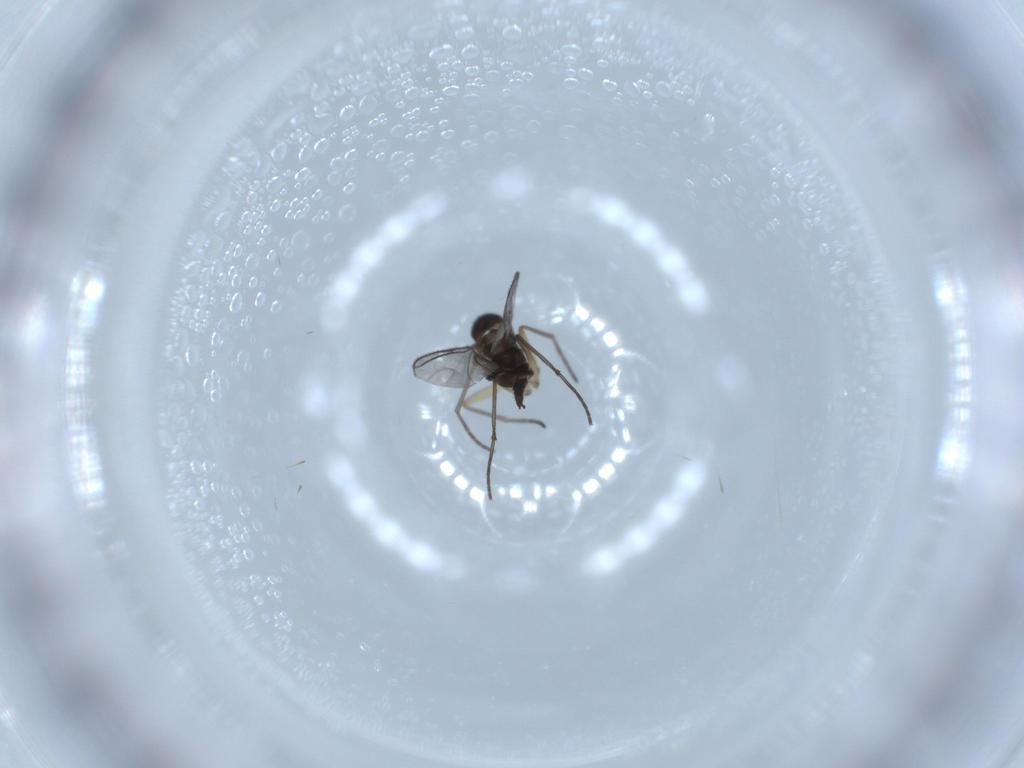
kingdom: Animalia
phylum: Arthropoda
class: Insecta
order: Diptera
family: Sciaridae
